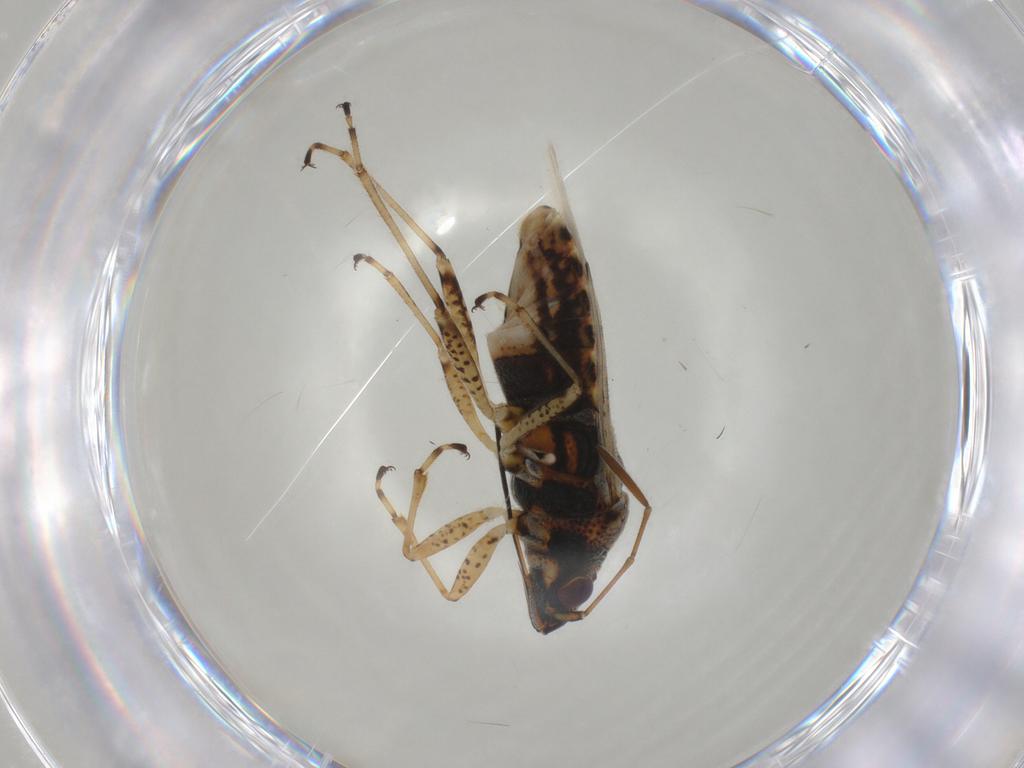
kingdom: Animalia
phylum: Arthropoda
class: Insecta
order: Hemiptera
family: Lygaeidae
